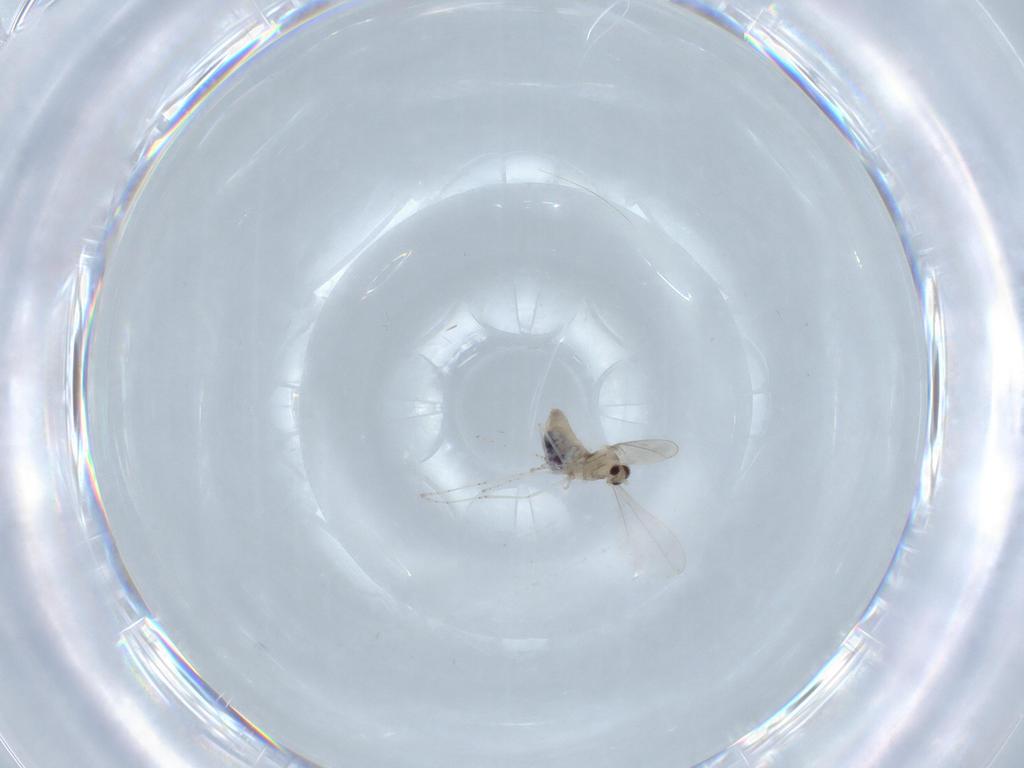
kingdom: Animalia
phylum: Arthropoda
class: Insecta
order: Diptera
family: Cecidomyiidae
